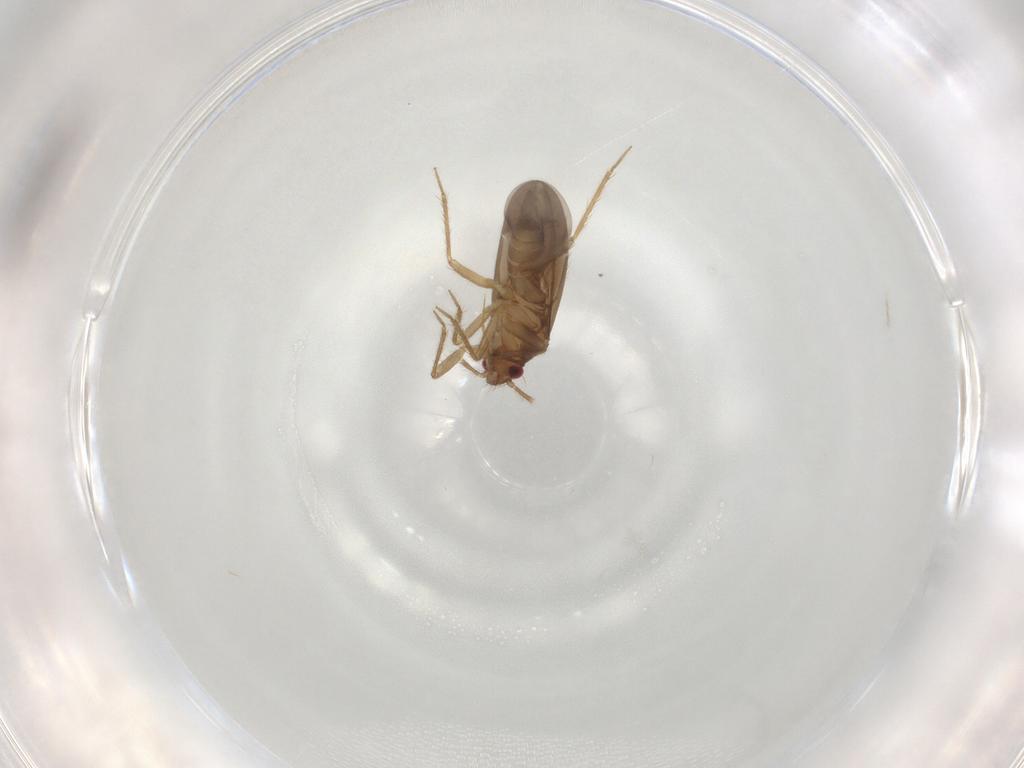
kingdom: Animalia
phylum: Arthropoda
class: Insecta
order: Hemiptera
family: Ceratocombidae
